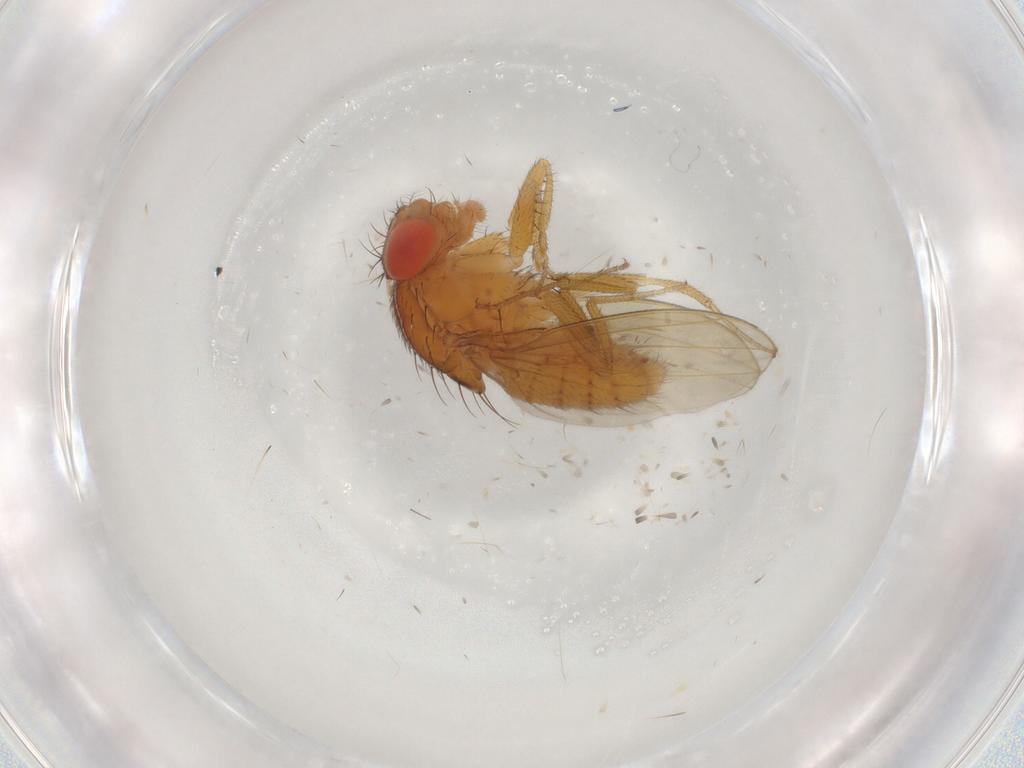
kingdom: Animalia
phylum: Arthropoda
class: Insecta
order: Diptera
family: Drosophilidae
